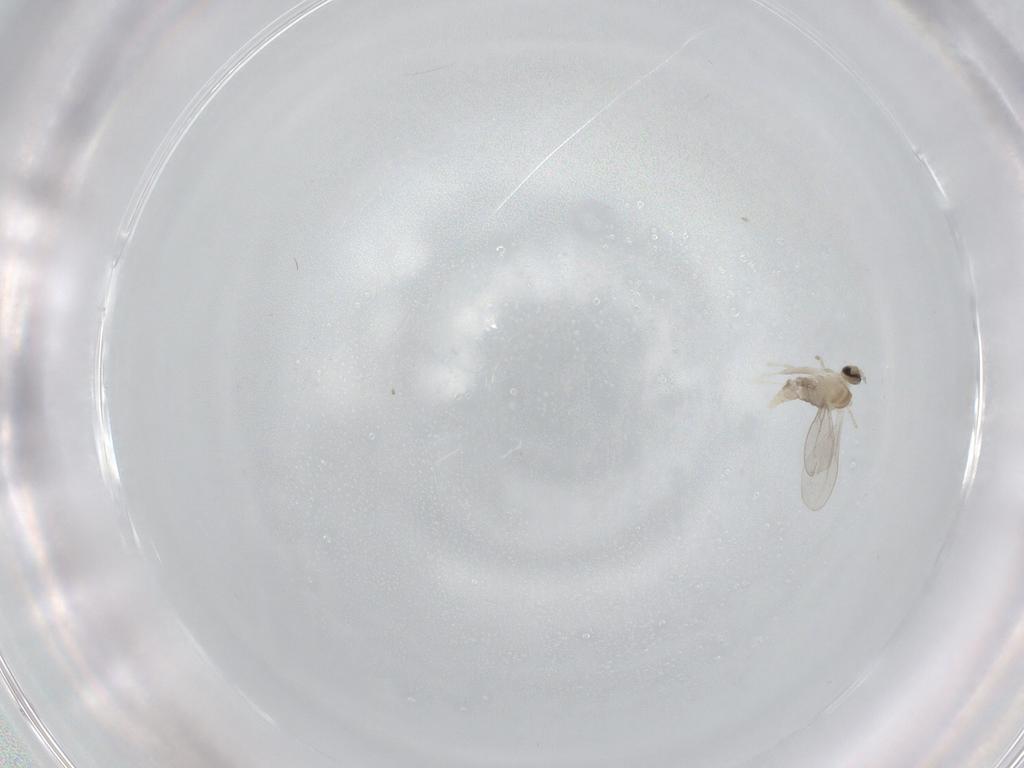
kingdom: Animalia
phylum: Arthropoda
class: Insecta
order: Diptera
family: Cecidomyiidae
